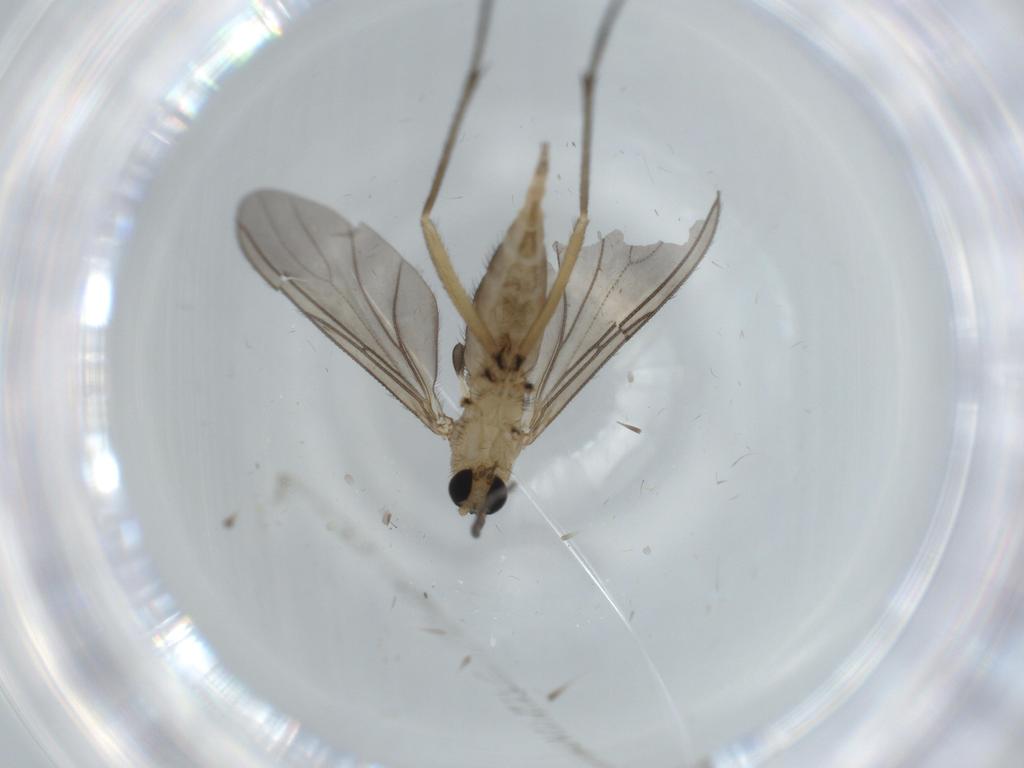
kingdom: Animalia
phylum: Arthropoda
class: Insecta
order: Diptera
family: Sciaridae
